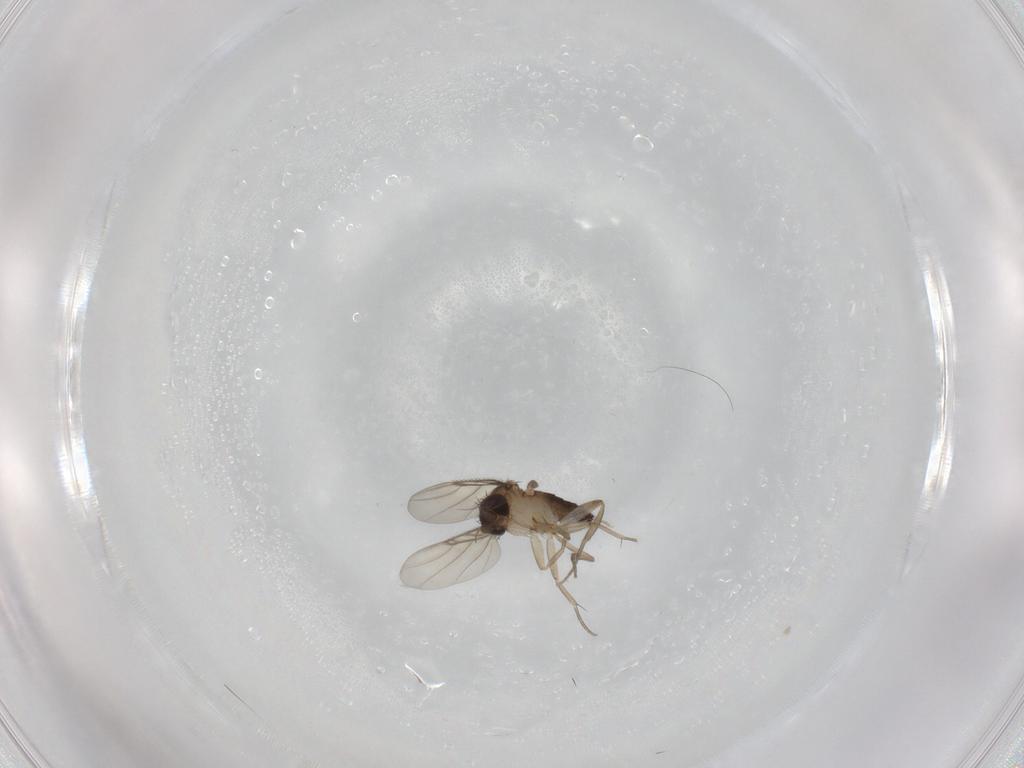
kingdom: Animalia
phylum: Arthropoda
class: Insecta
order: Diptera
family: Phoridae
